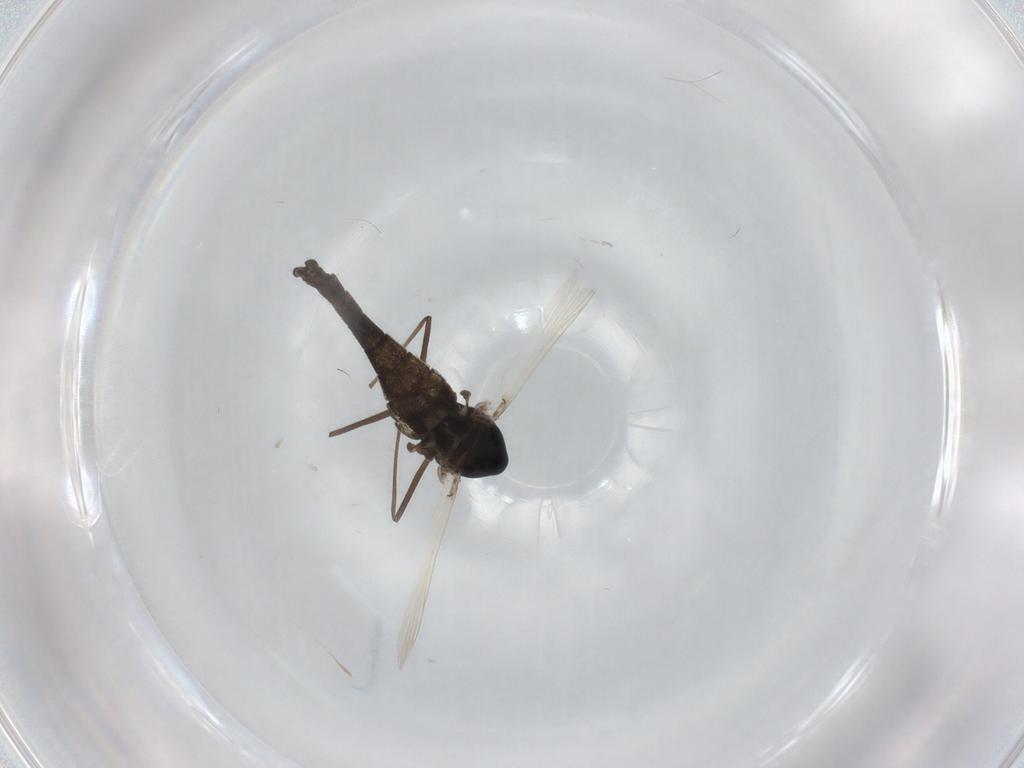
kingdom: Animalia
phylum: Arthropoda
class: Insecta
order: Diptera
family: Chironomidae
